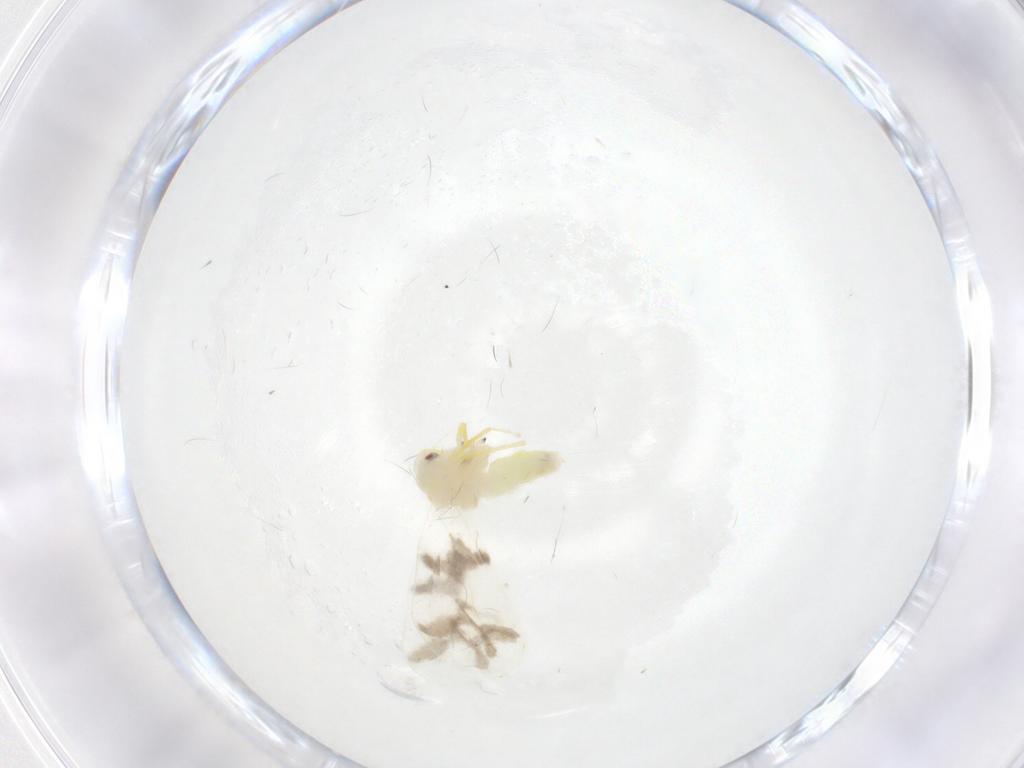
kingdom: Animalia
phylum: Arthropoda
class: Insecta
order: Hemiptera
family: Aleyrodidae
